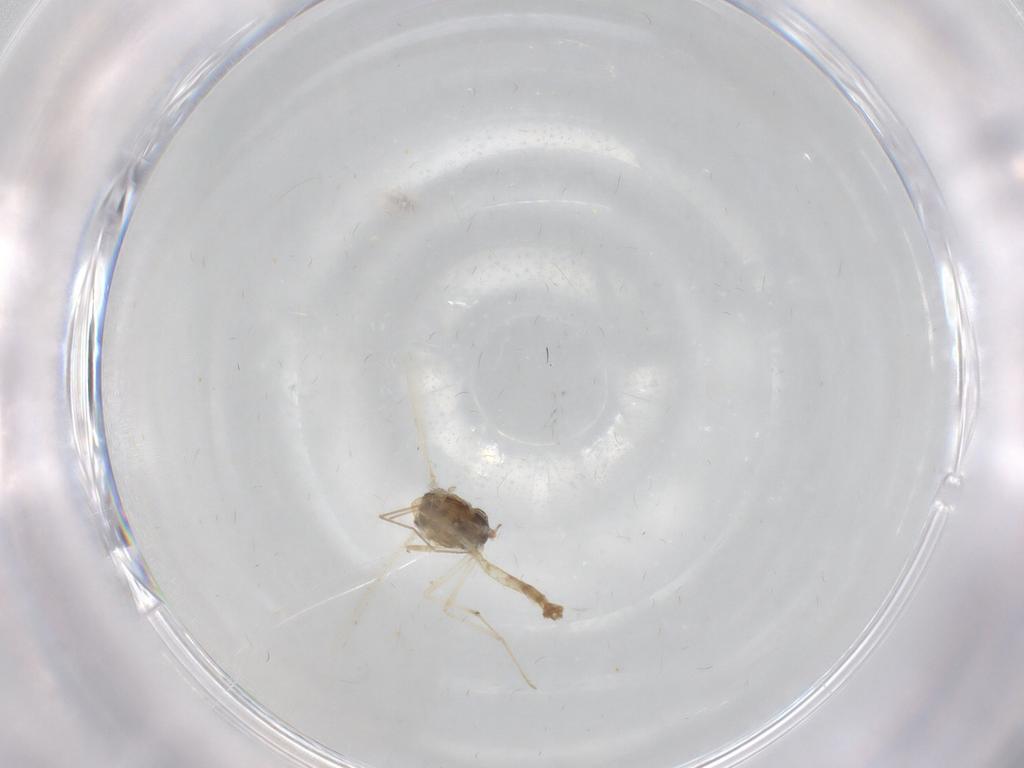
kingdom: Animalia
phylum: Arthropoda
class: Insecta
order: Diptera
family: Chironomidae
